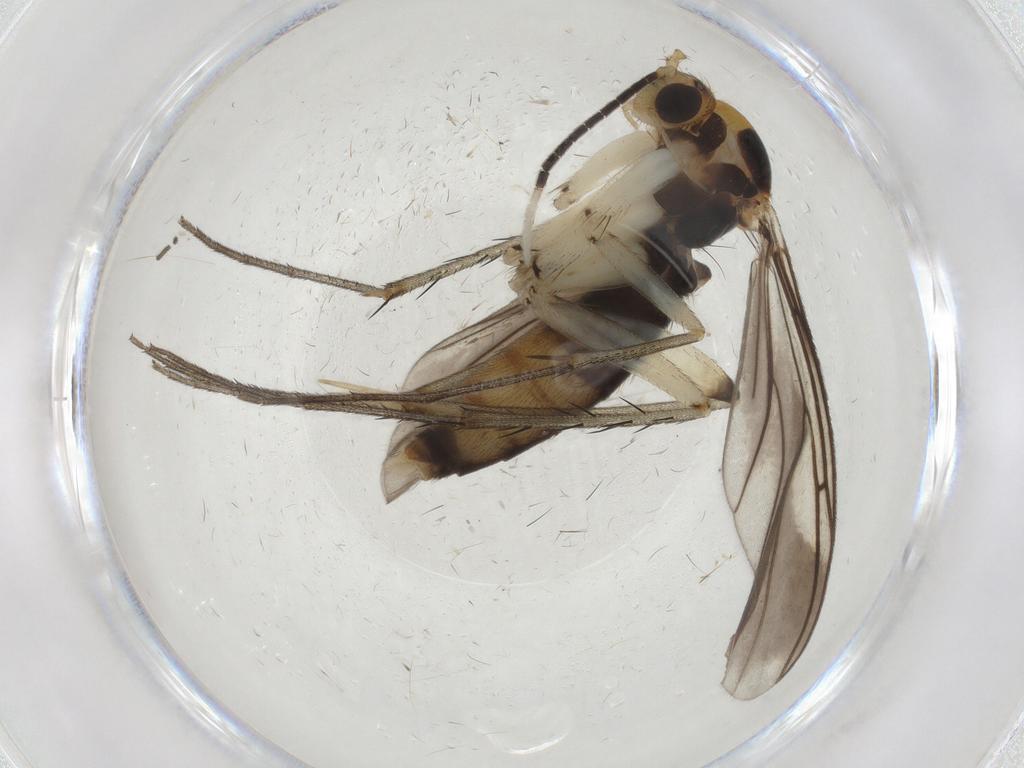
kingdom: Animalia
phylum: Arthropoda
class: Insecta
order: Diptera
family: Mycetophilidae
